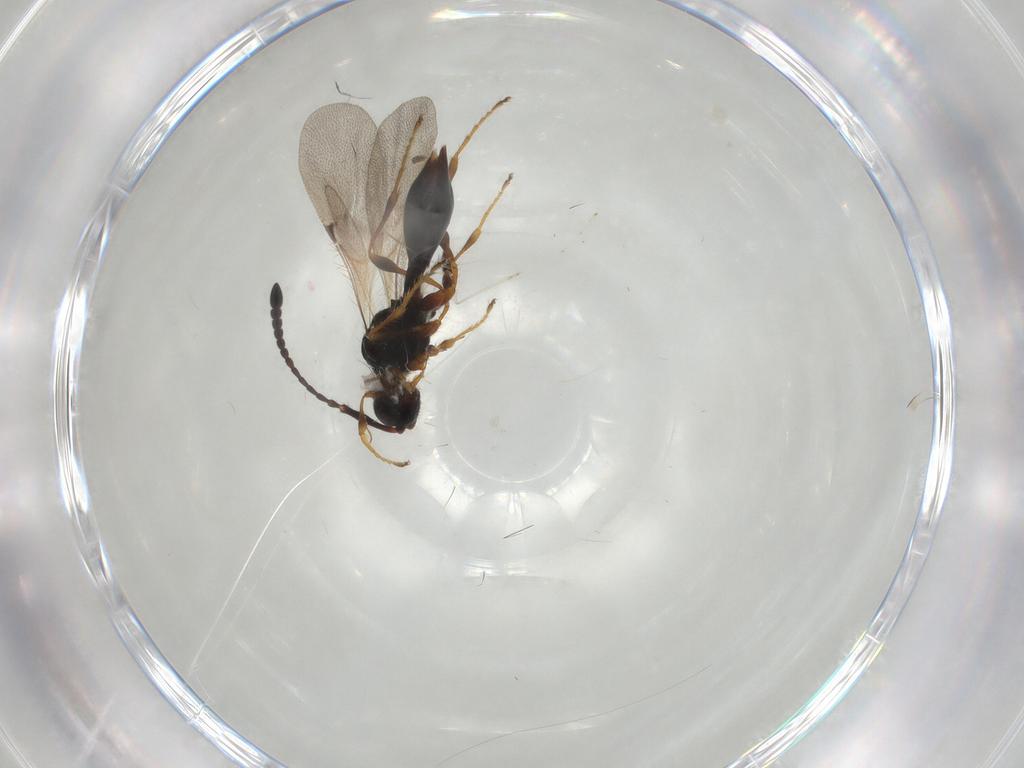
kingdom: Animalia
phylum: Arthropoda
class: Insecta
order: Hymenoptera
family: Diapriidae
